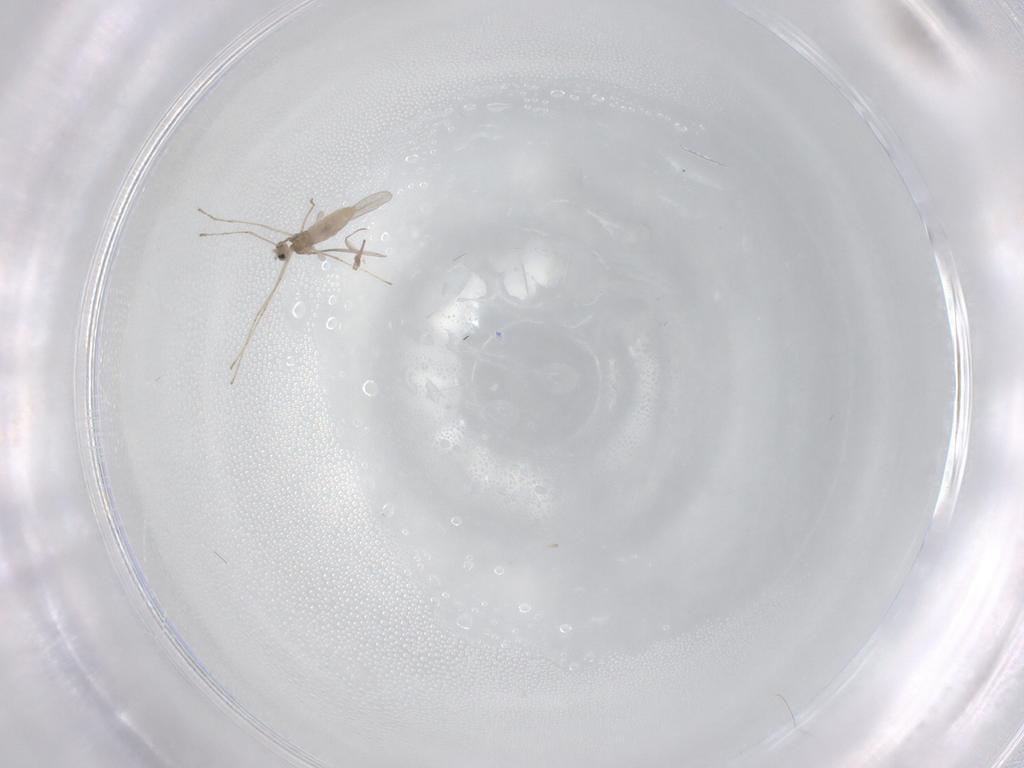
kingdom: Animalia
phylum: Arthropoda
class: Insecta
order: Diptera
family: Cecidomyiidae
